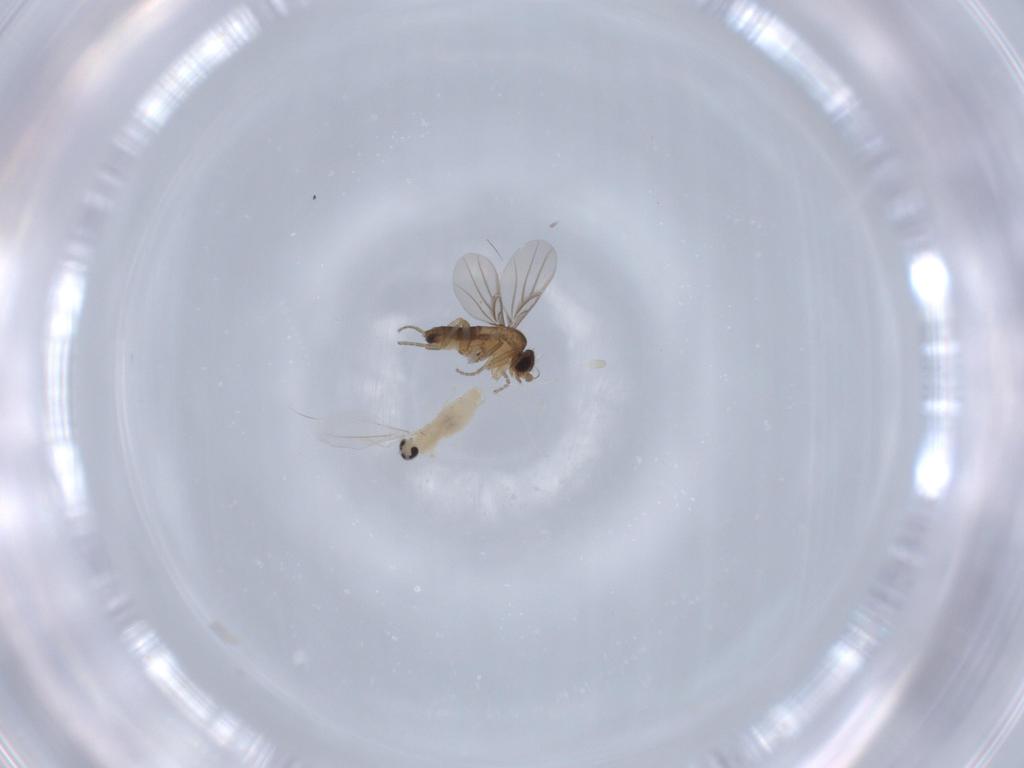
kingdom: Animalia
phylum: Arthropoda
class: Insecta
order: Diptera
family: Cecidomyiidae
